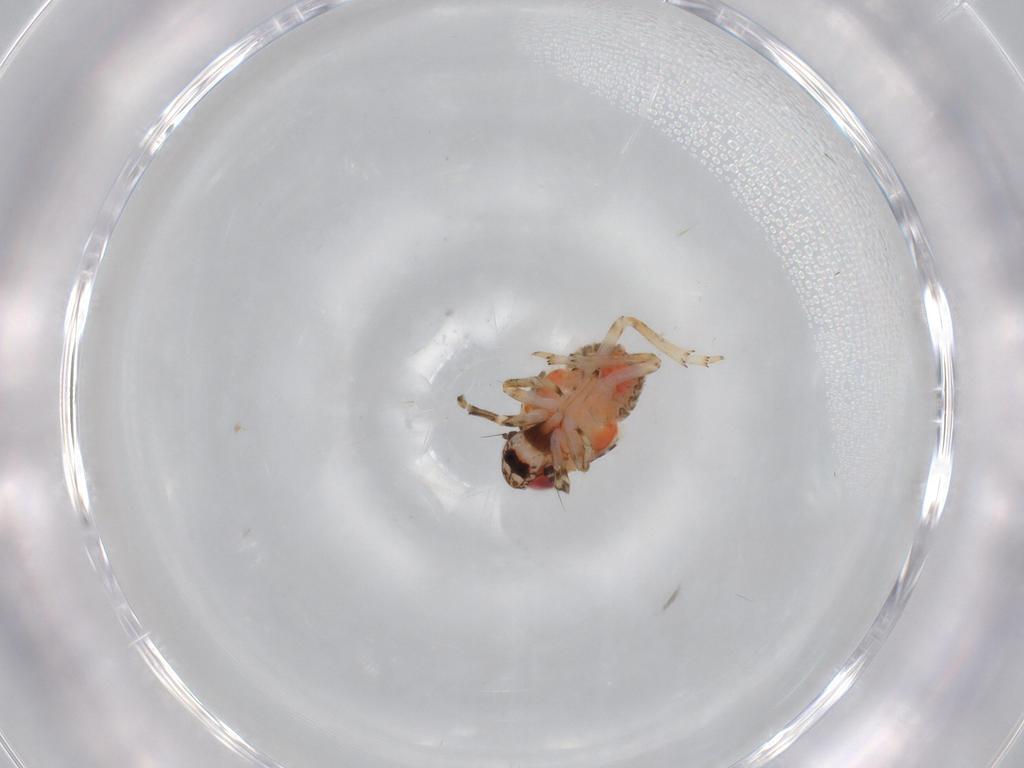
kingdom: Animalia
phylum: Arthropoda
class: Insecta
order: Hemiptera
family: Issidae
